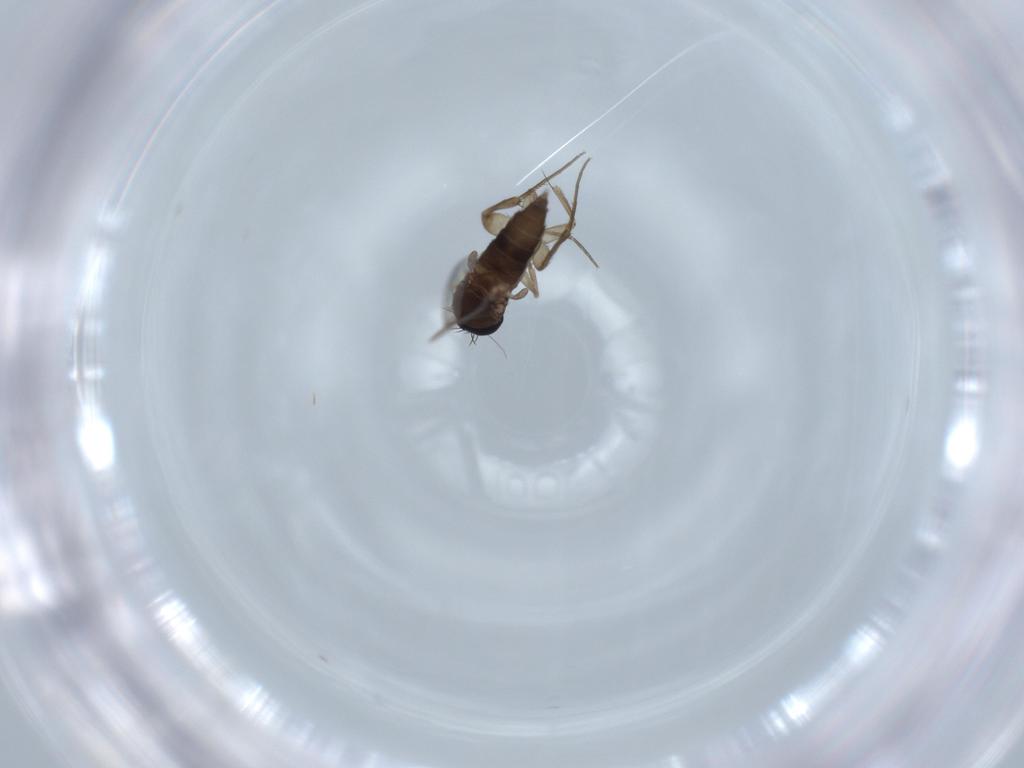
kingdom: Animalia
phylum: Arthropoda
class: Insecta
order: Diptera
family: Phoridae
